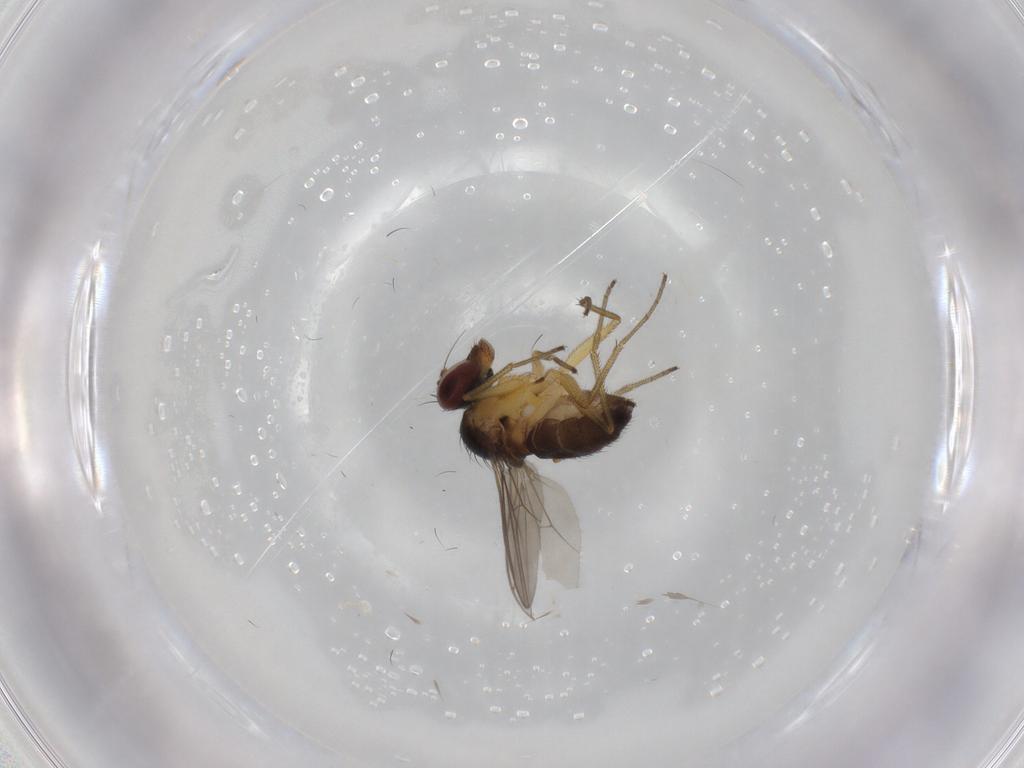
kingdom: Animalia
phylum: Arthropoda
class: Insecta
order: Diptera
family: Dolichopodidae
